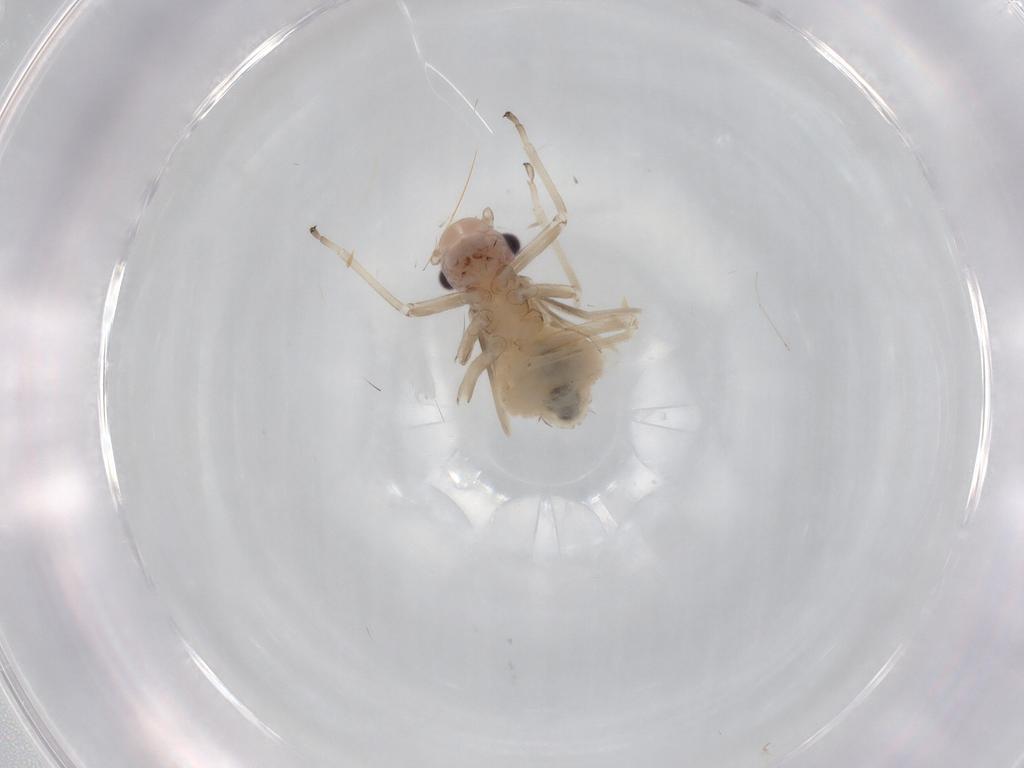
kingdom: Animalia
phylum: Arthropoda
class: Insecta
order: Psocodea
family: Stenopsocidae
